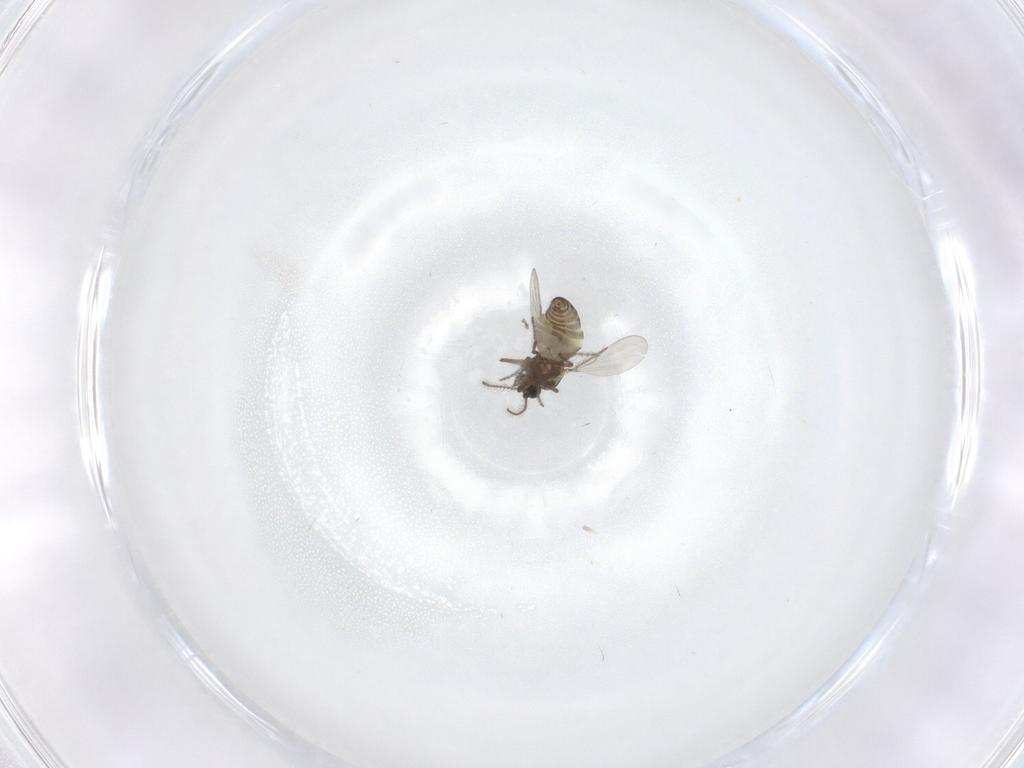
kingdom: Animalia
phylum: Arthropoda
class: Insecta
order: Diptera
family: Ceratopogonidae
